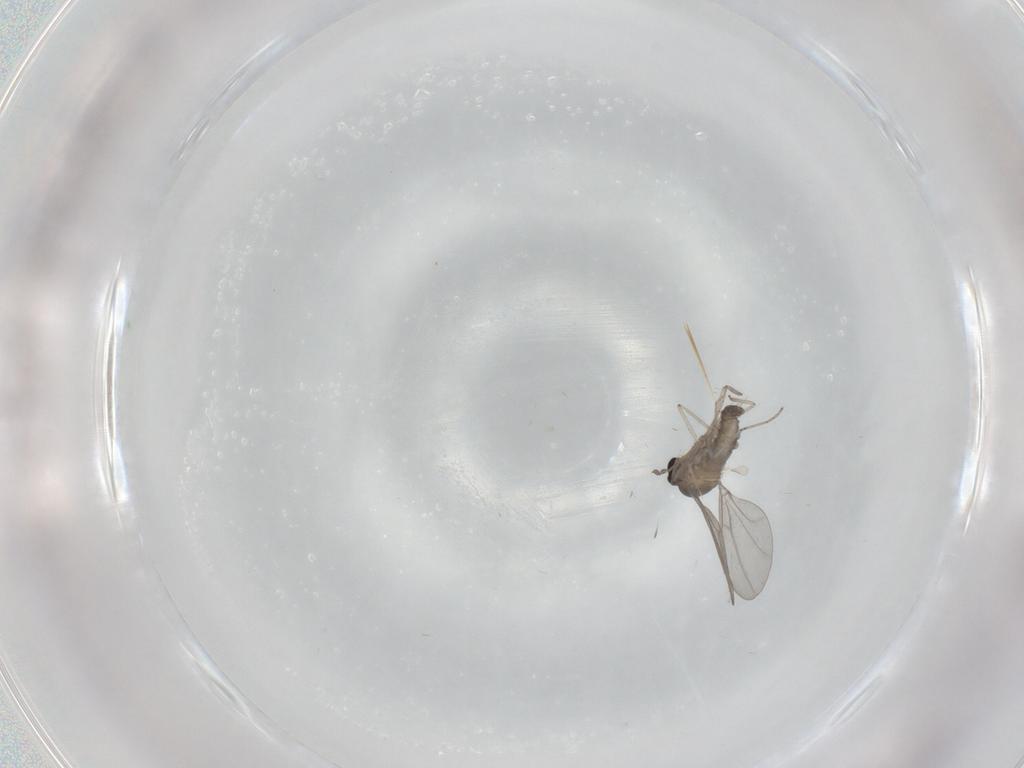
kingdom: Animalia
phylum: Arthropoda
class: Insecta
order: Diptera
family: Cecidomyiidae
